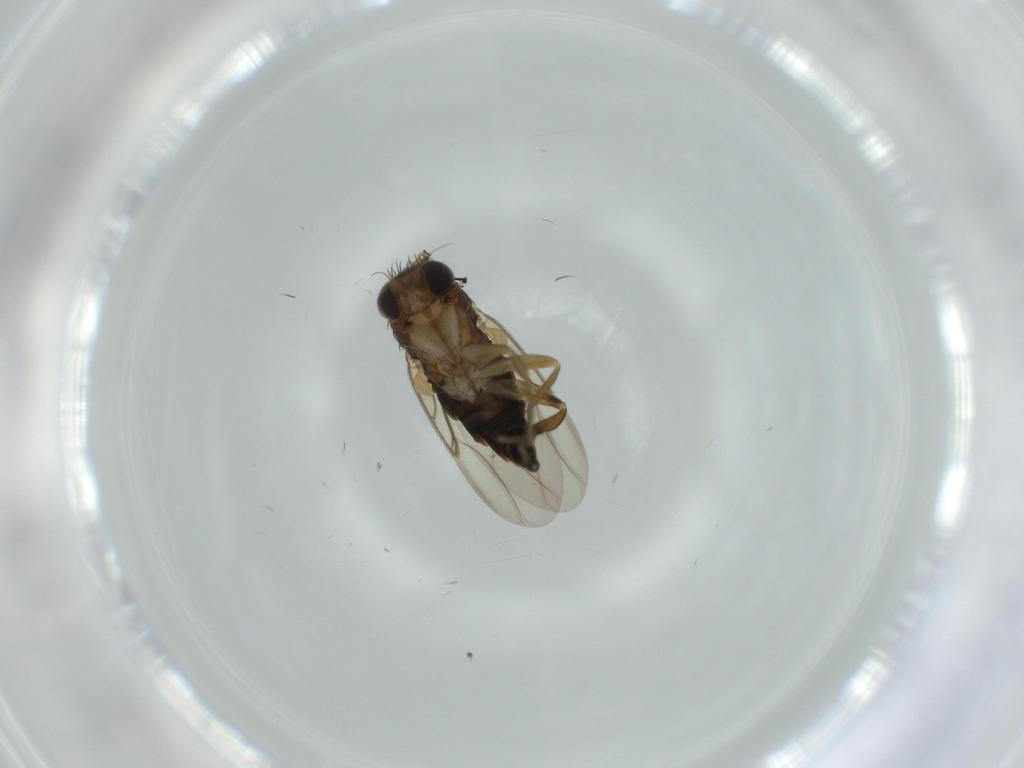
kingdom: Animalia
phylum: Arthropoda
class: Insecta
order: Diptera
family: Phoridae
